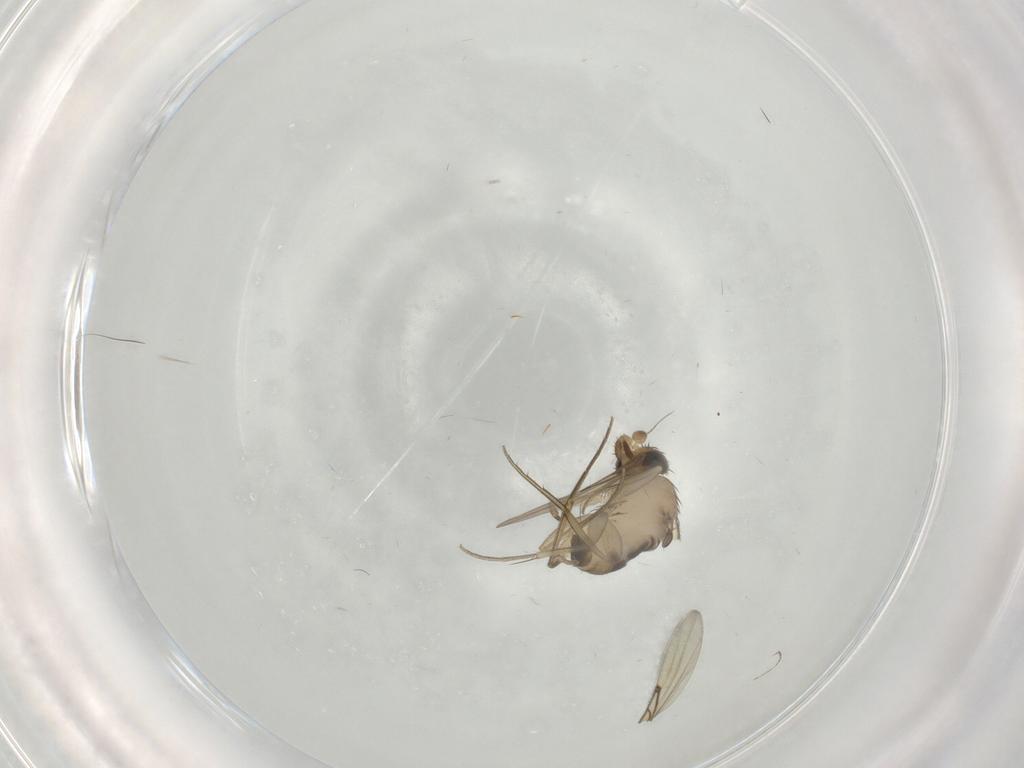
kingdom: Animalia
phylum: Arthropoda
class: Insecta
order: Diptera
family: Phoridae
